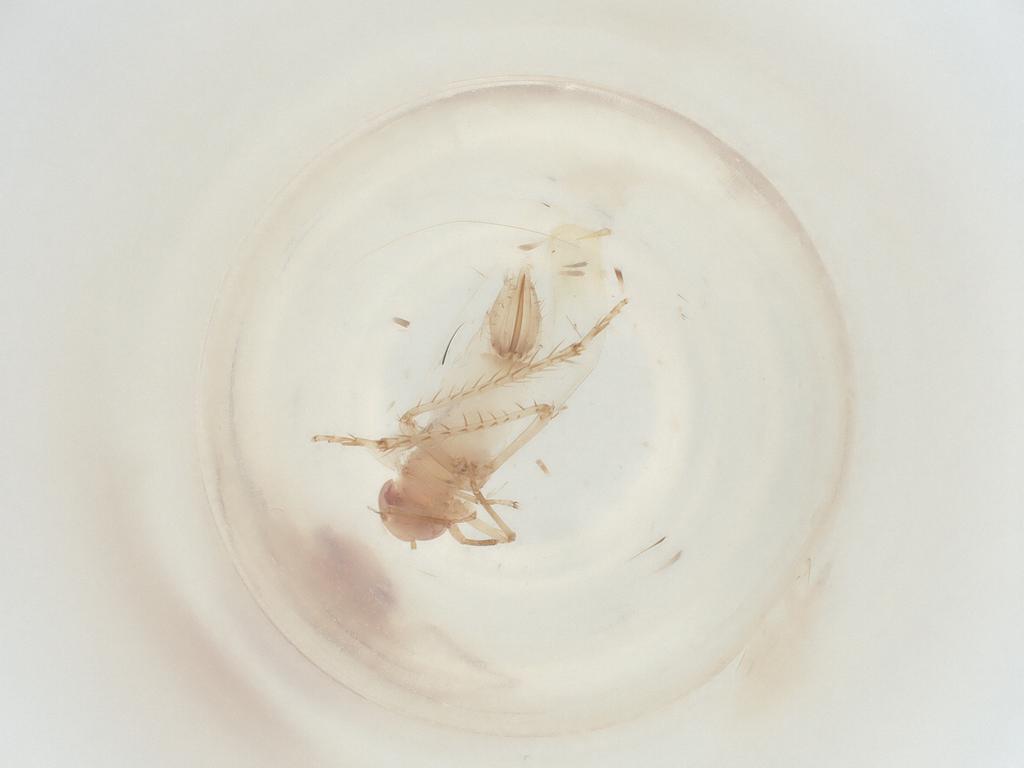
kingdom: Animalia
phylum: Arthropoda
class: Insecta
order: Hemiptera
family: Cicadellidae
